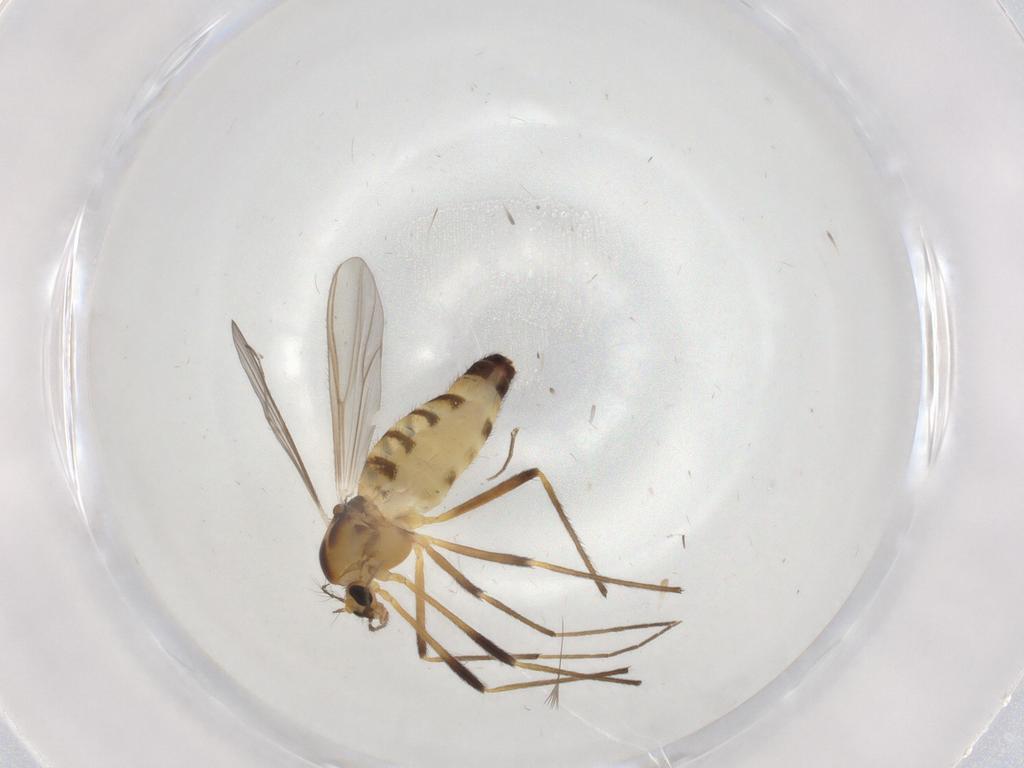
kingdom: Animalia
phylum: Arthropoda
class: Insecta
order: Diptera
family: Chironomidae
